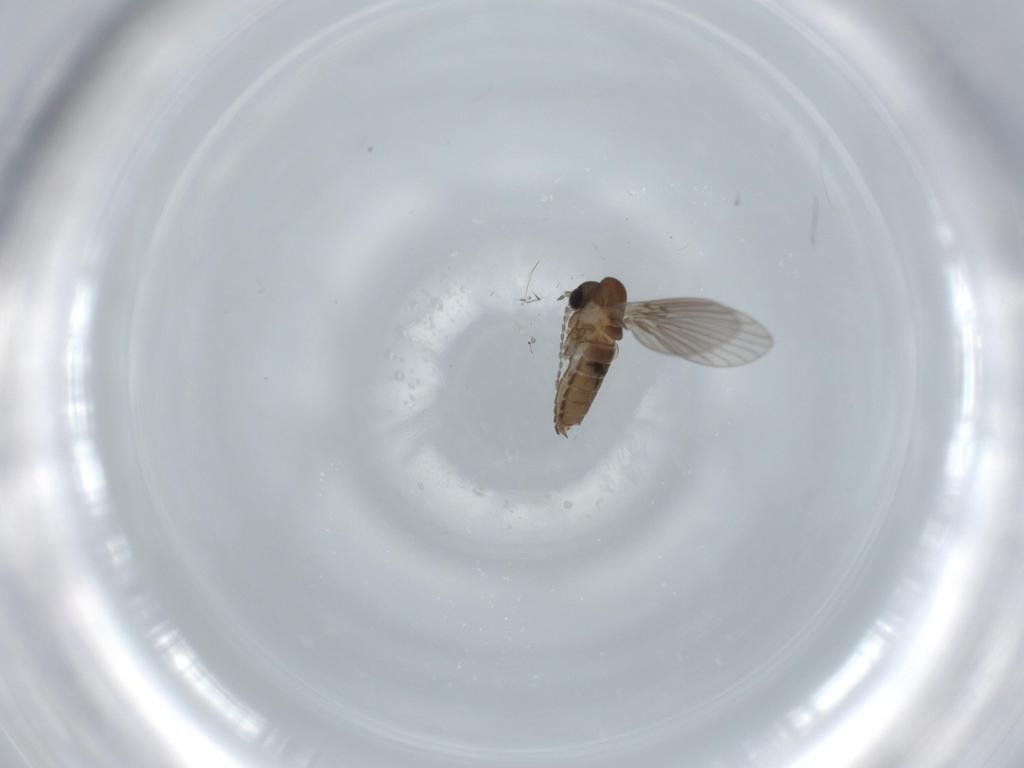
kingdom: Animalia
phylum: Arthropoda
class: Insecta
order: Diptera
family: Psychodidae
